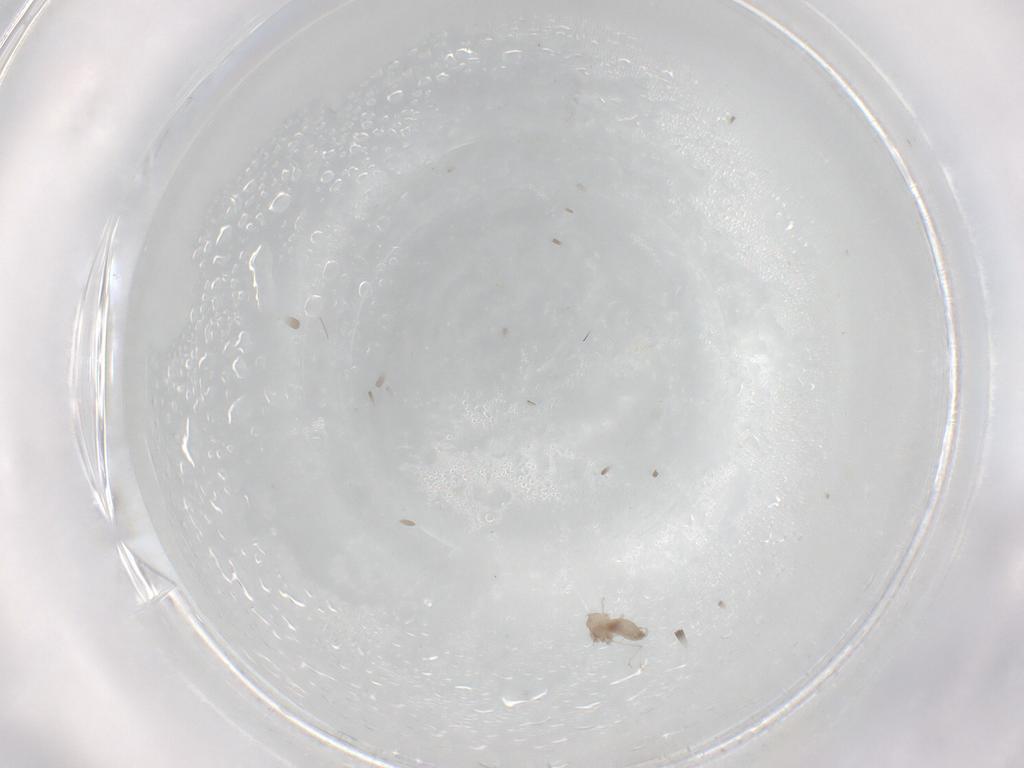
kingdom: Animalia
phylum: Arthropoda
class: Insecta
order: Diptera
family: Cecidomyiidae
